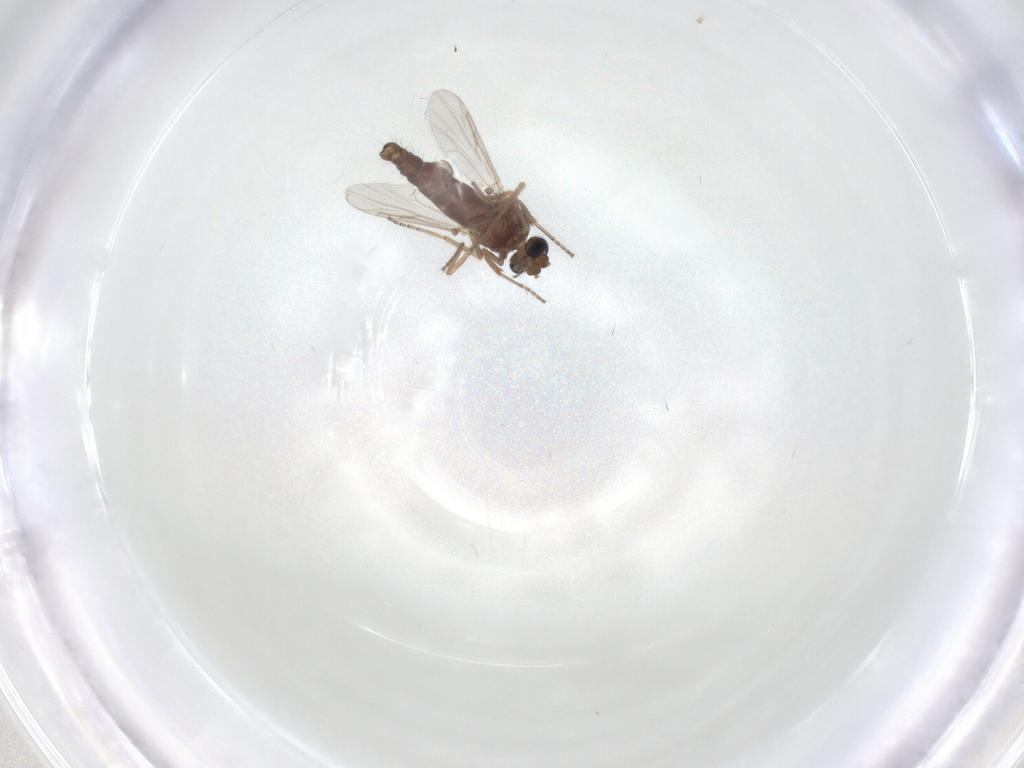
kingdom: Animalia
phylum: Arthropoda
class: Insecta
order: Diptera
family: Ceratopogonidae
